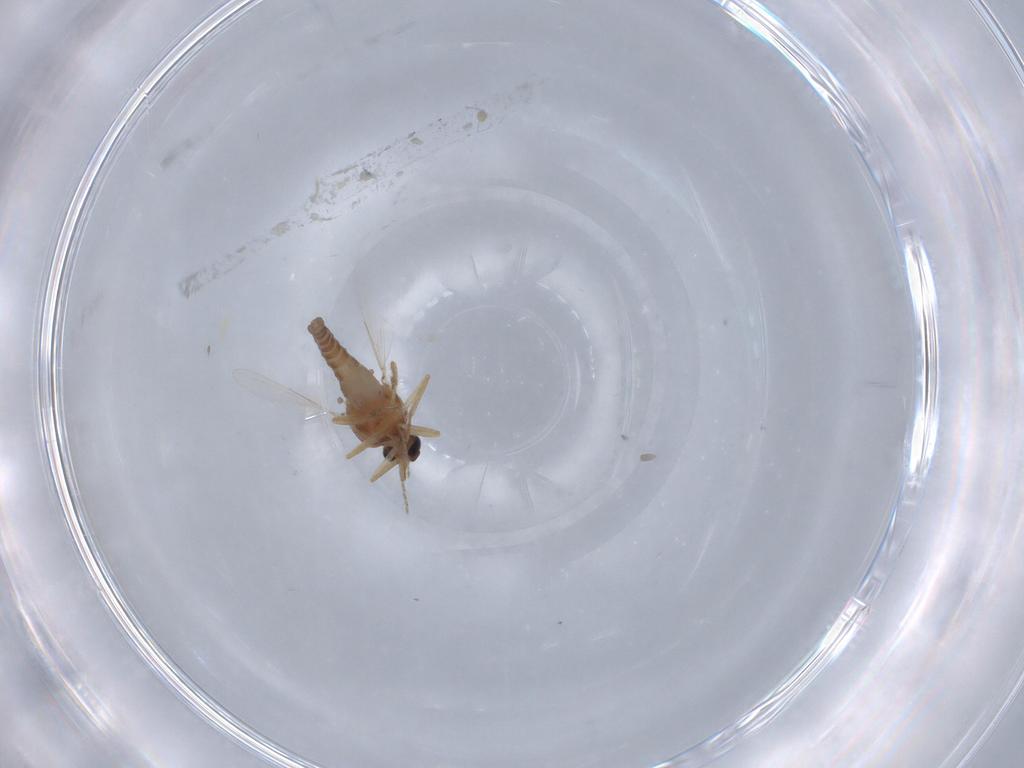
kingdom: Animalia
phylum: Arthropoda
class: Insecta
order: Diptera
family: Ceratopogonidae
